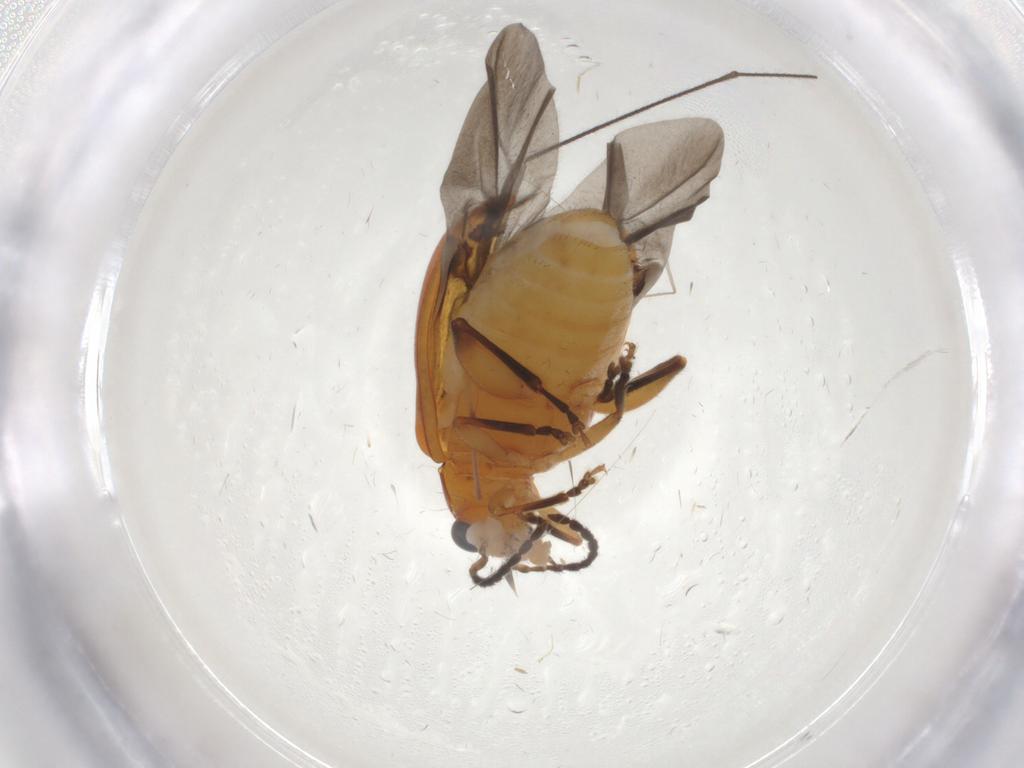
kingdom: Animalia
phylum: Arthropoda
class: Insecta
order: Coleoptera
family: Chrysomelidae
